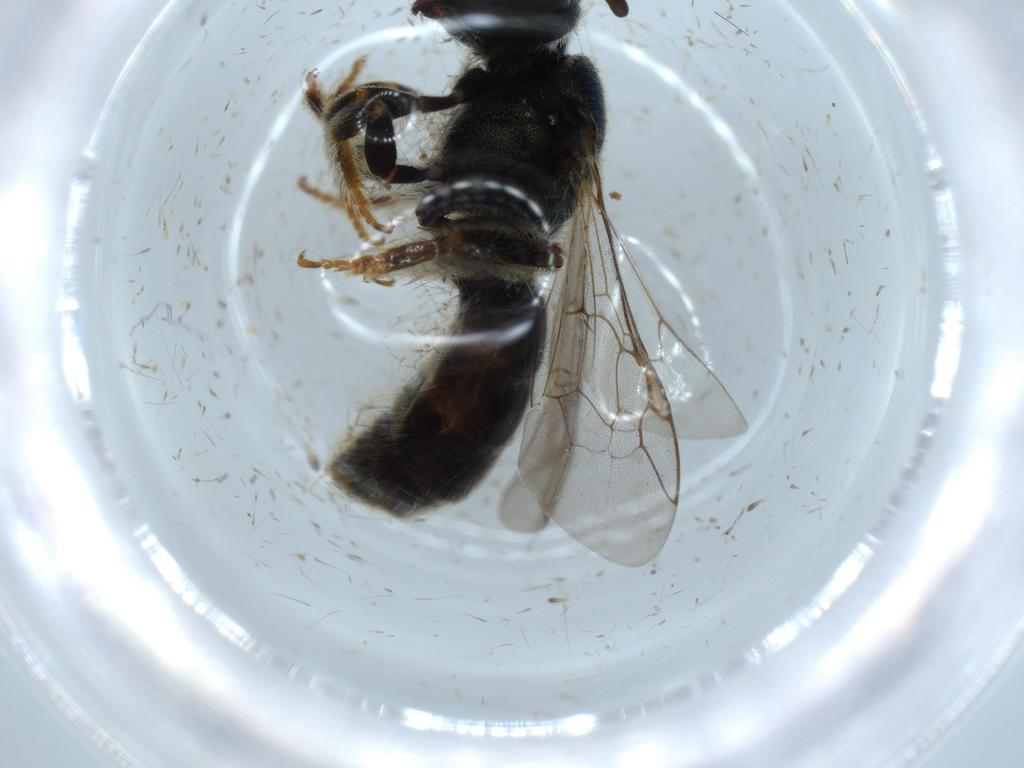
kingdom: Animalia
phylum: Arthropoda
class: Insecta
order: Hymenoptera
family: Halictidae
